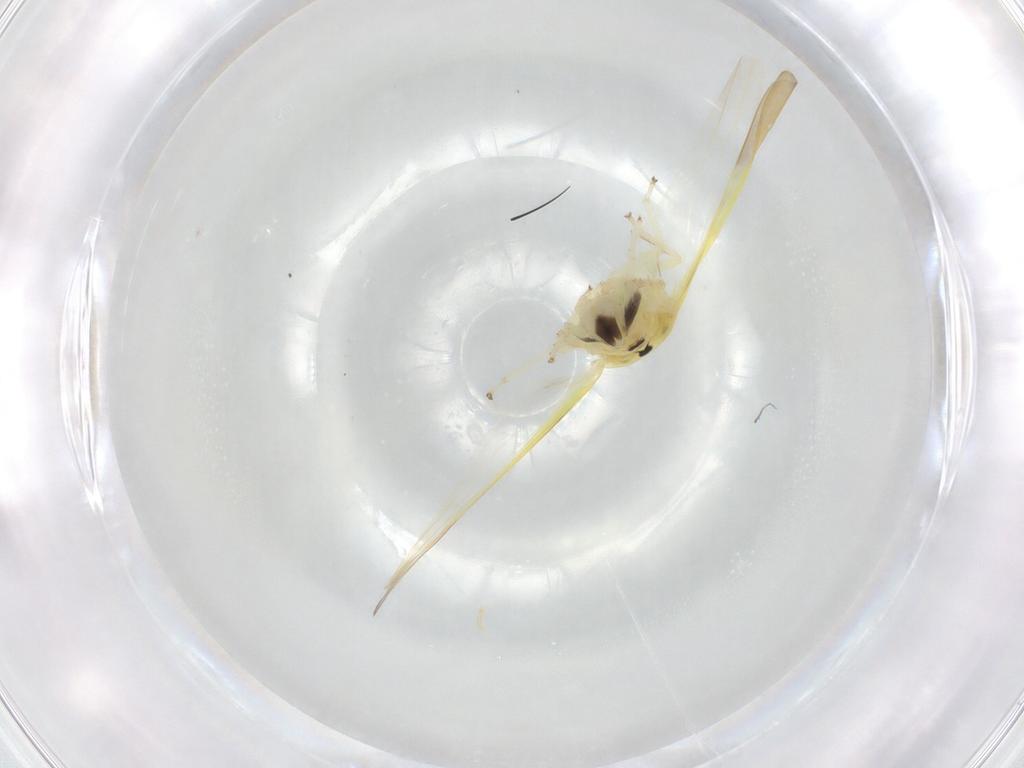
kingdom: Animalia
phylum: Arthropoda
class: Insecta
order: Hemiptera
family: Cicadellidae
